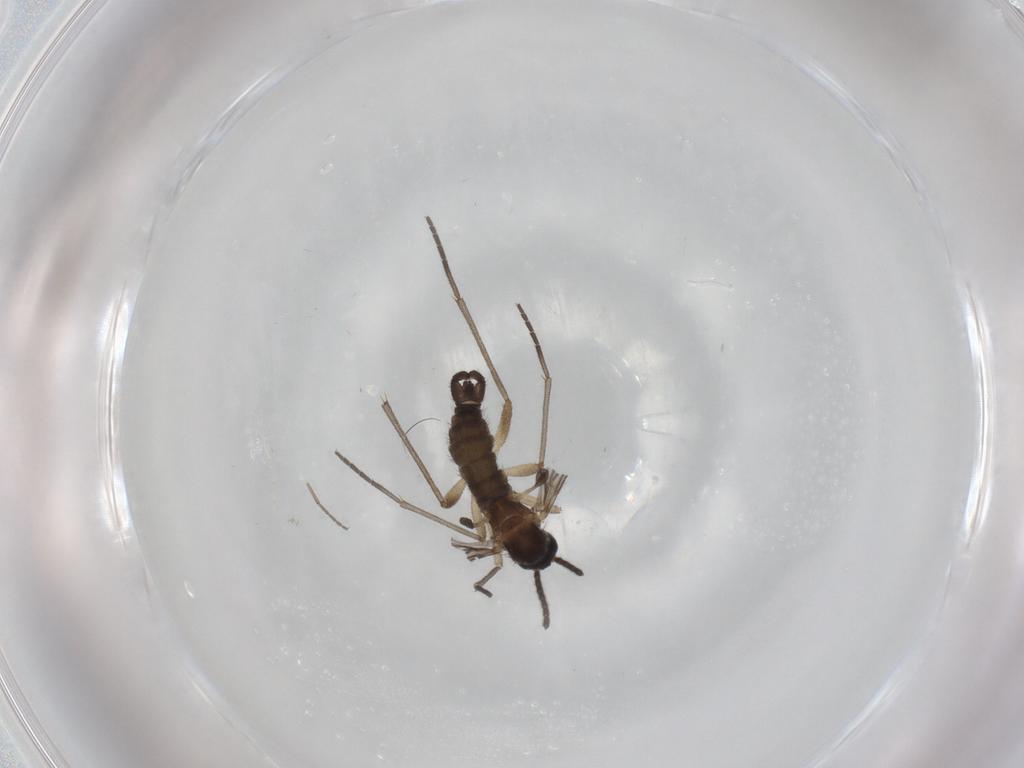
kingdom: Animalia
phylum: Arthropoda
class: Insecta
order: Diptera
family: Sciaridae
